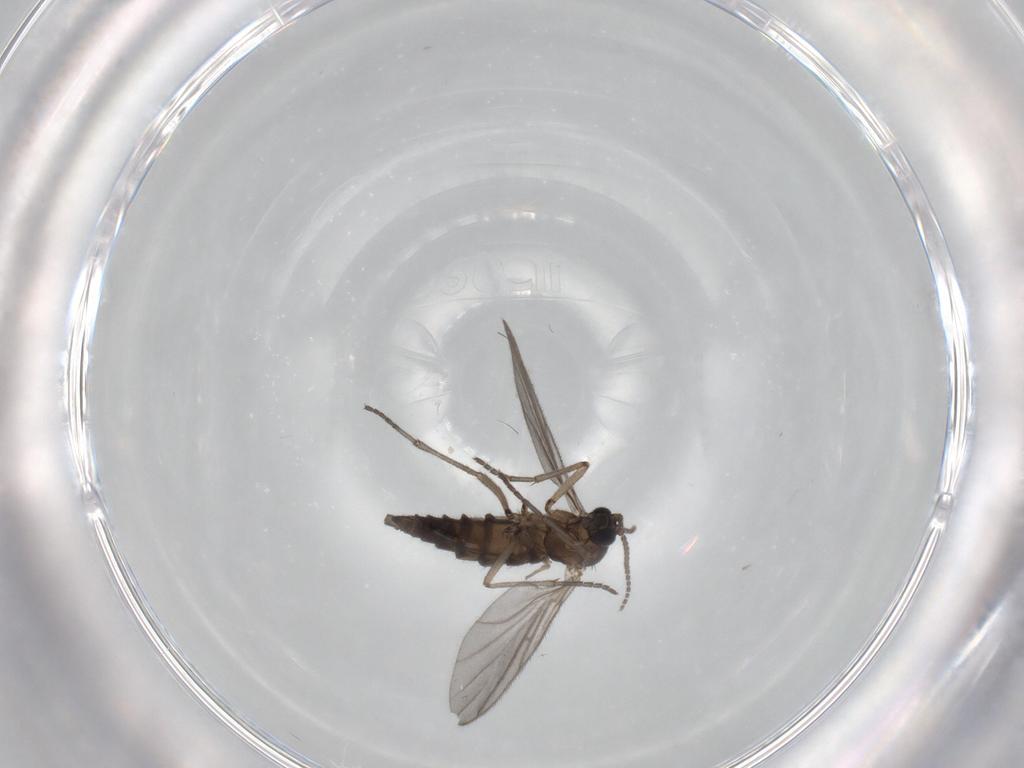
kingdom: Animalia
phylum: Arthropoda
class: Insecta
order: Diptera
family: Sciaridae
